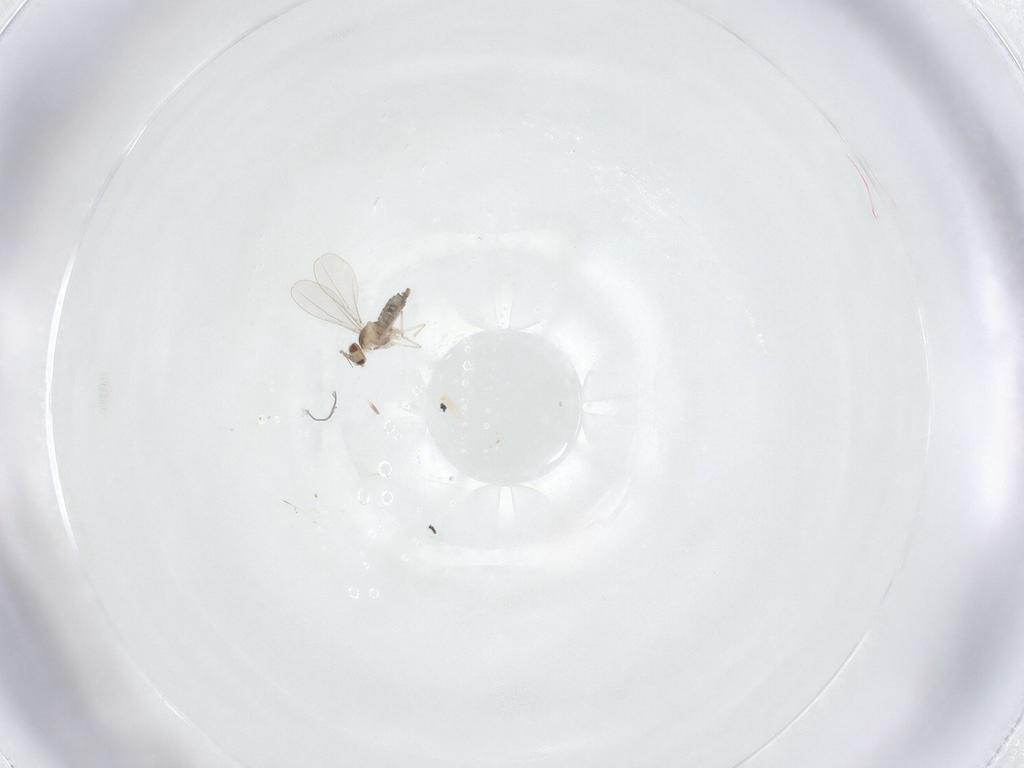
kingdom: Animalia
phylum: Arthropoda
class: Insecta
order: Diptera
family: Cecidomyiidae
